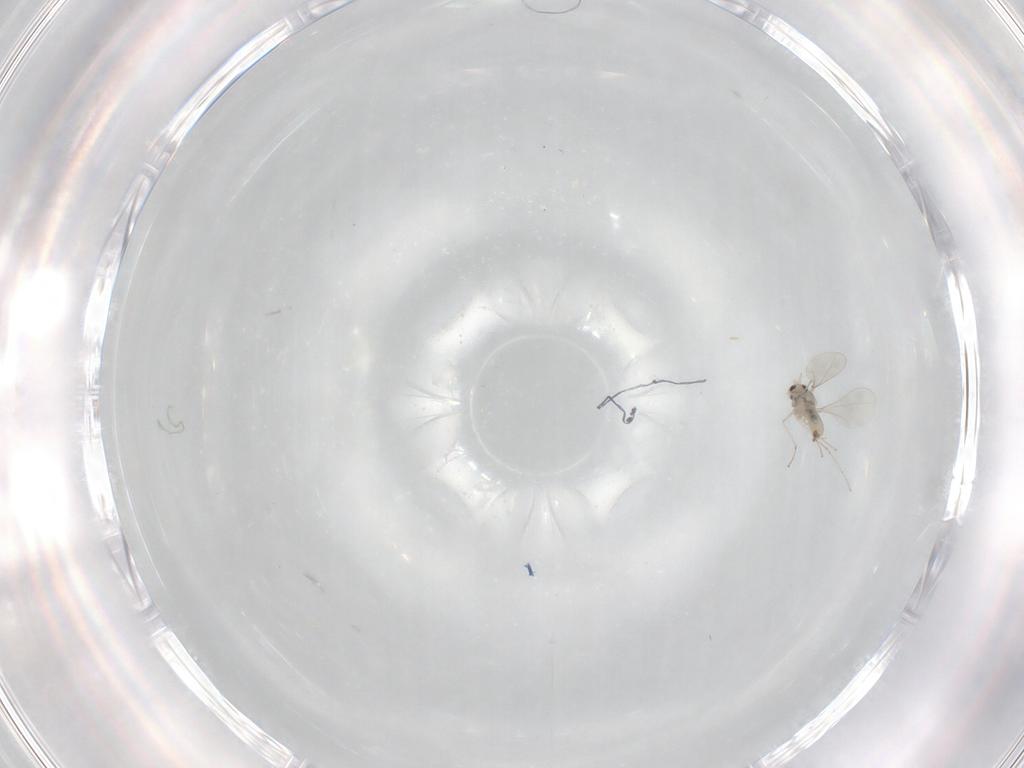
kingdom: Animalia
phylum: Arthropoda
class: Insecta
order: Diptera
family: Cecidomyiidae
